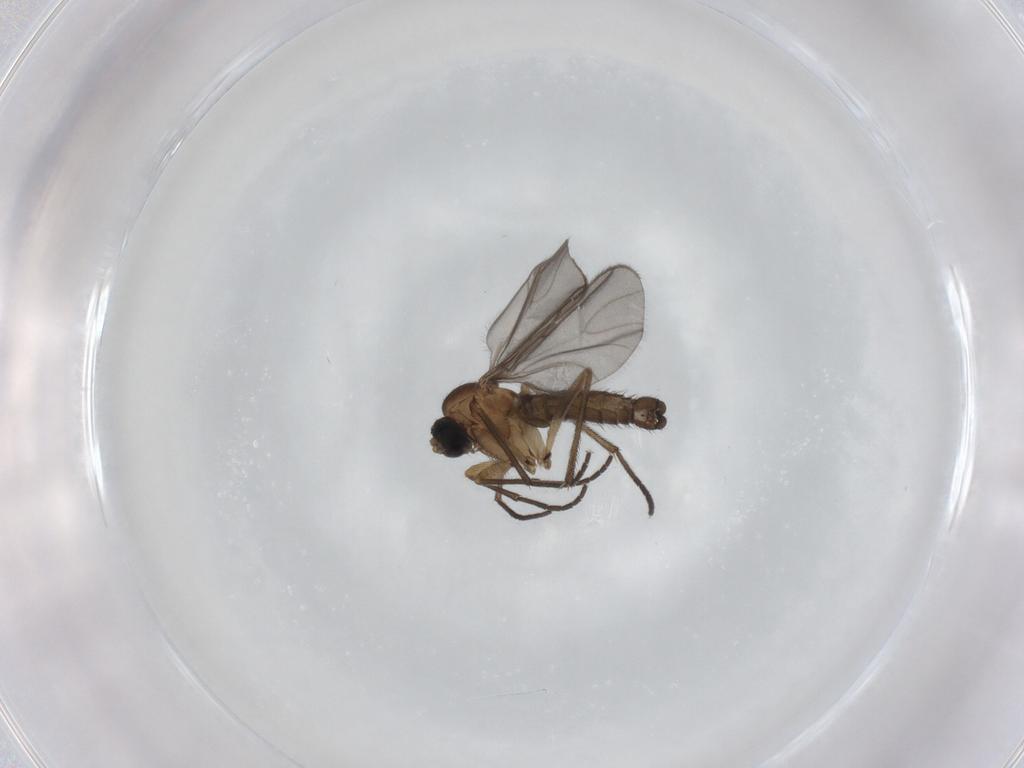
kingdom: Animalia
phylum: Arthropoda
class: Insecta
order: Diptera
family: Sciaridae
